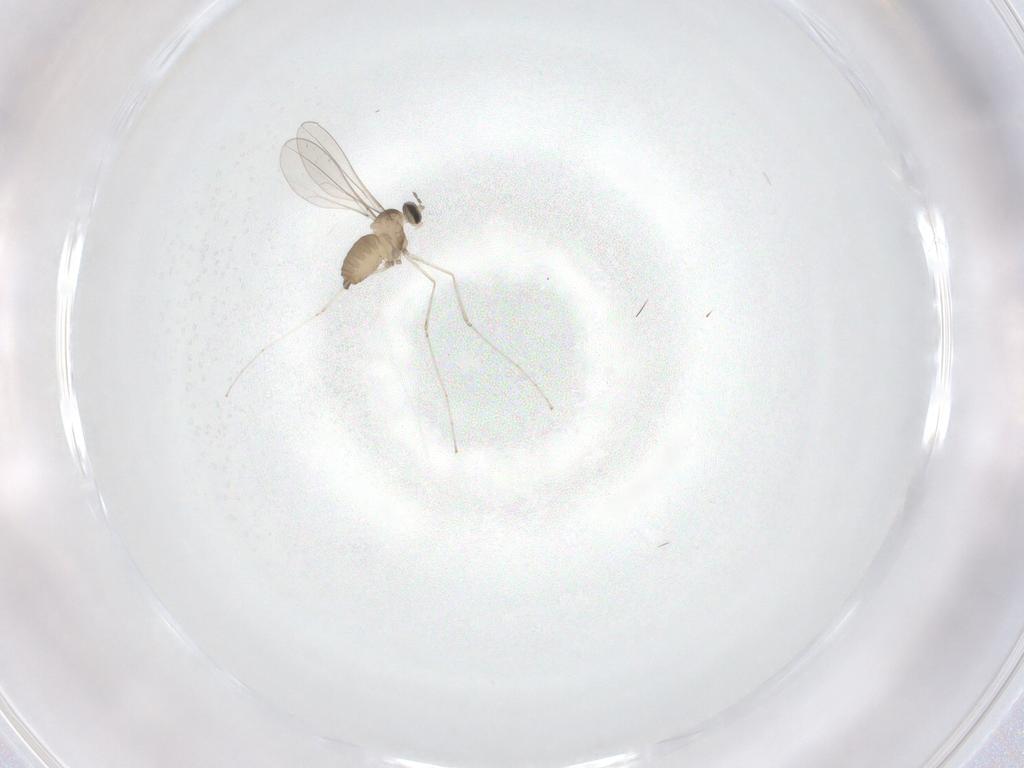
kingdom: Animalia
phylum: Arthropoda
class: Insecta
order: Diptera
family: Cecidomyiidae
